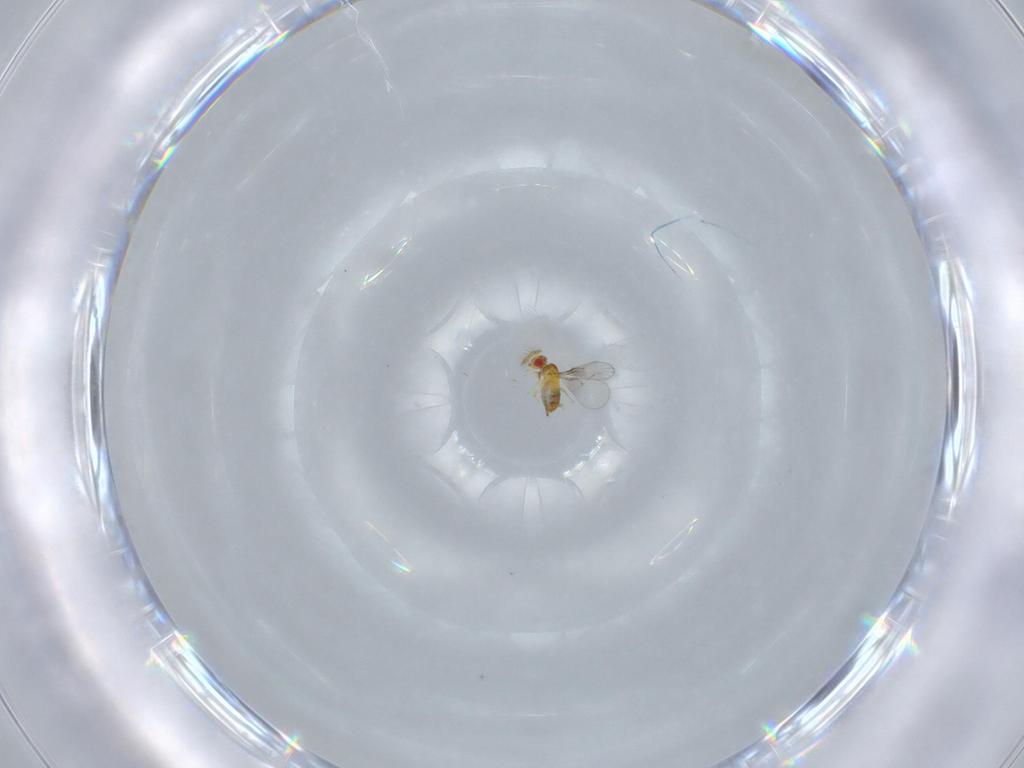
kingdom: Animalia
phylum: Arthropoda
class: Insecta
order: Hymenoptera
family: Trichogrammatidae
